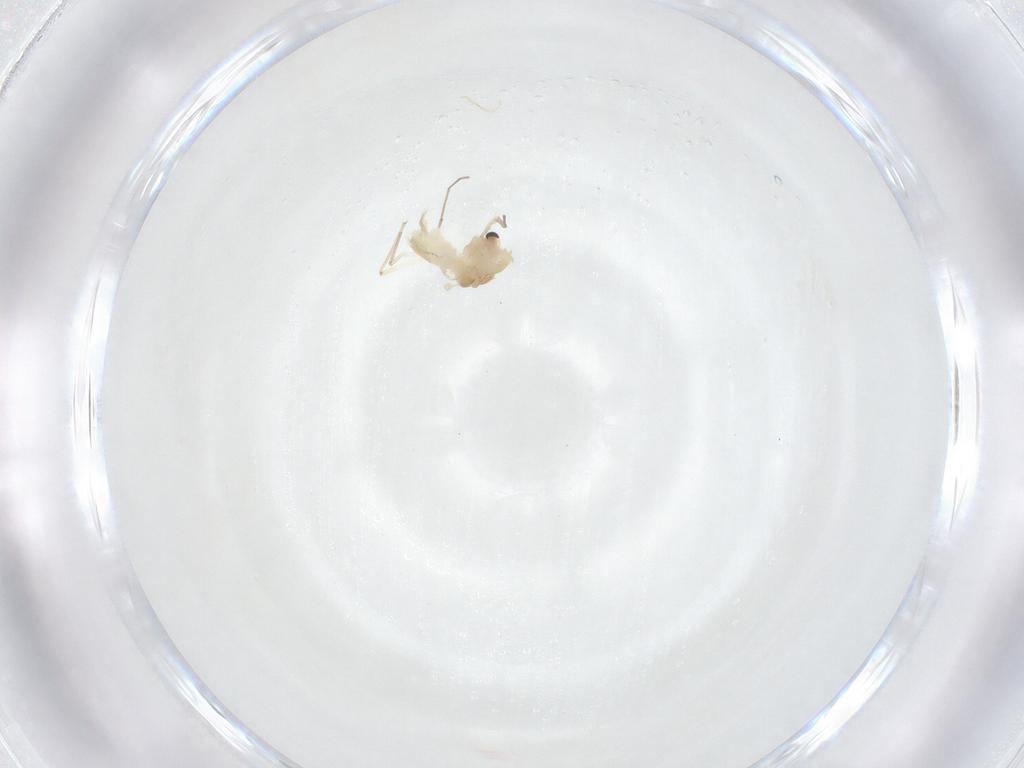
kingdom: Animalia
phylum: Arthropoda
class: Insecta
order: Diptera
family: Chironomidae
